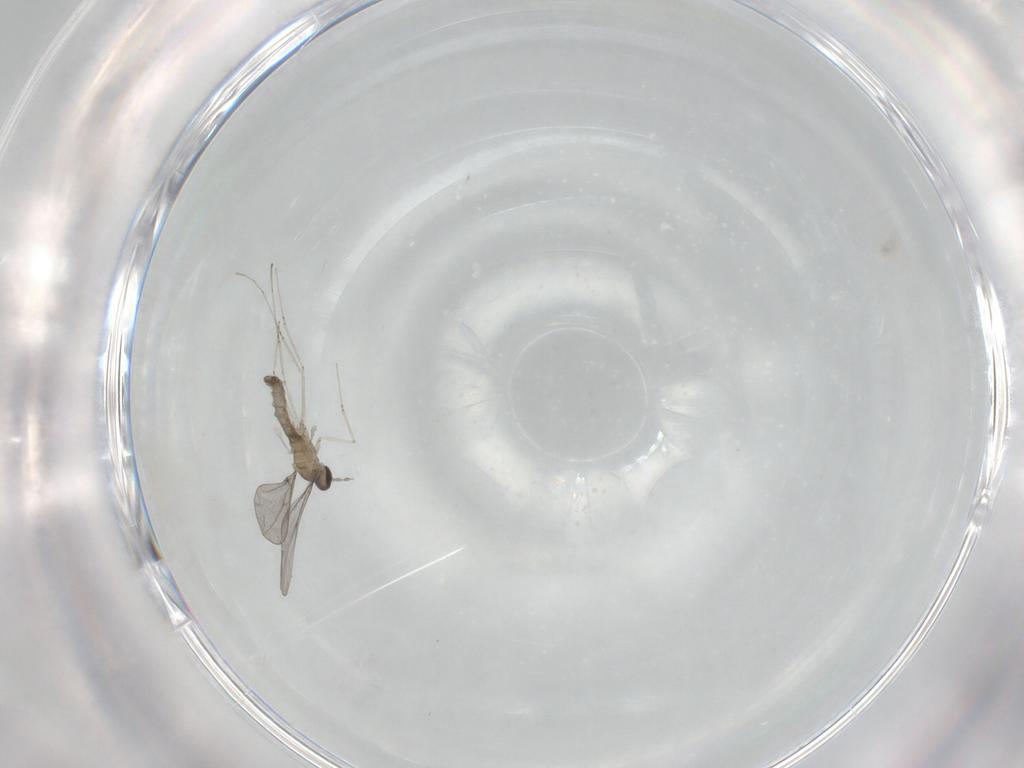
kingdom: Animalia
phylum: Arthropoda
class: Insecta
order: Diptera
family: Cecidomyiidae
